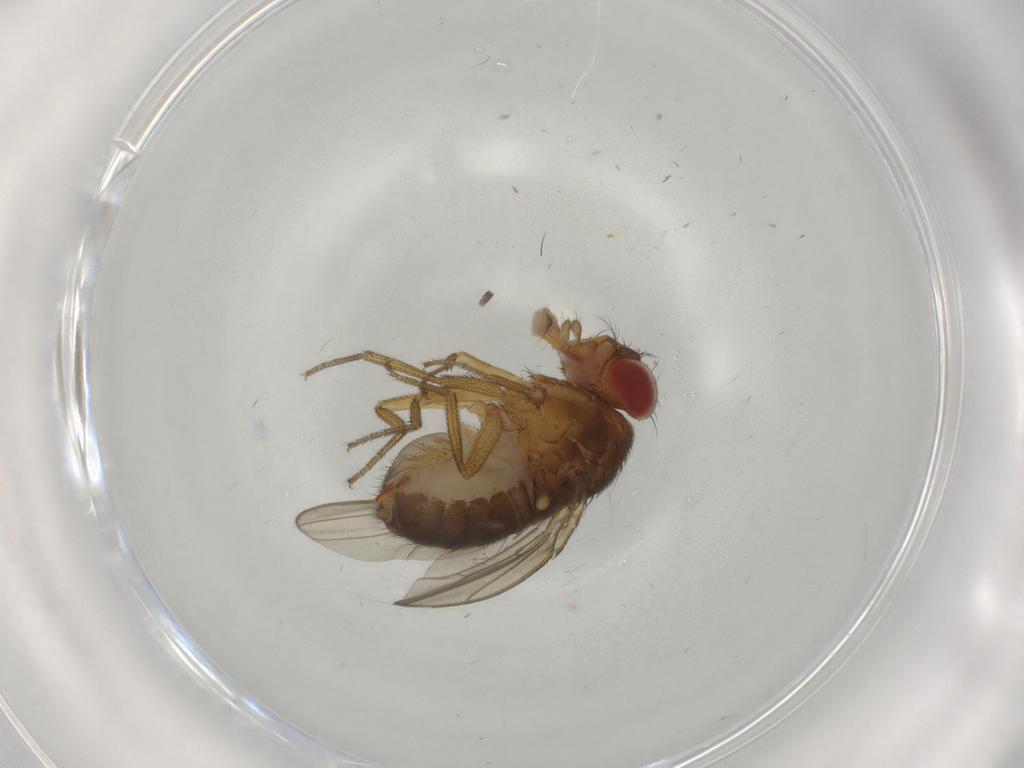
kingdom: Animalia
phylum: Arthropoda
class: Insecta
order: Diptera
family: Drosophilidae
